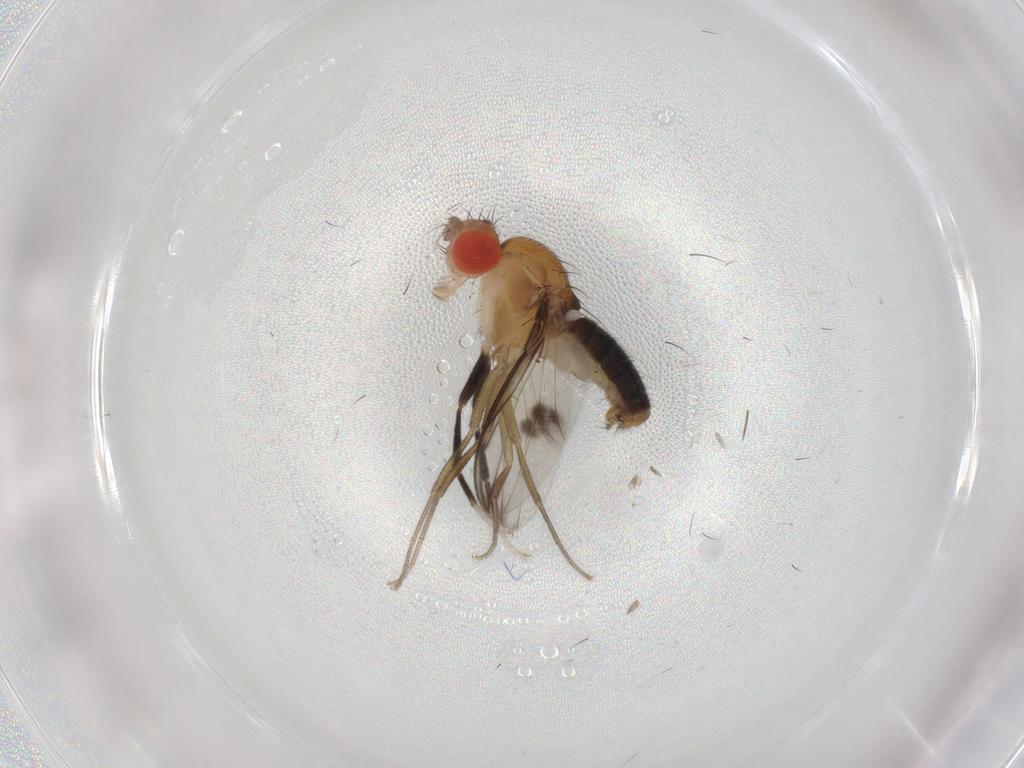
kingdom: Animalia
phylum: Arthropoda
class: Insecta
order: Diptera
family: Drosophilidae
